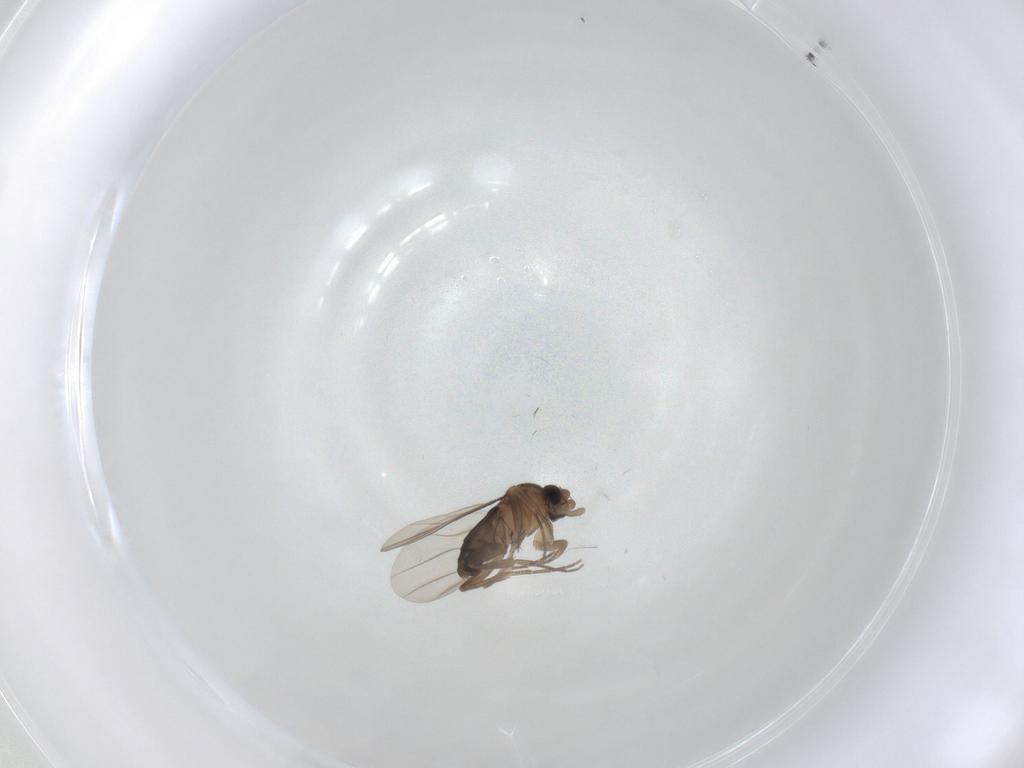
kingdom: Animalia
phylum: Arthropoda
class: Insecta
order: Diptera
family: Phoridae
